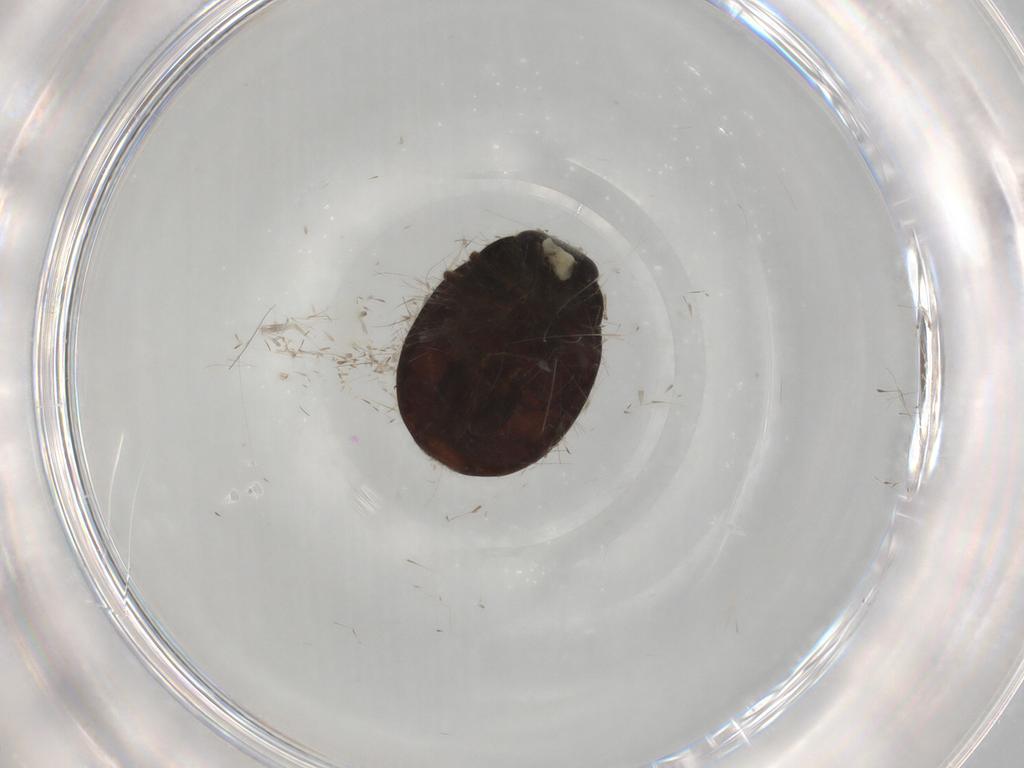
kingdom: Animalia
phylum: Arthropoda
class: Insecta
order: Coleoptera
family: Coccinellidae
